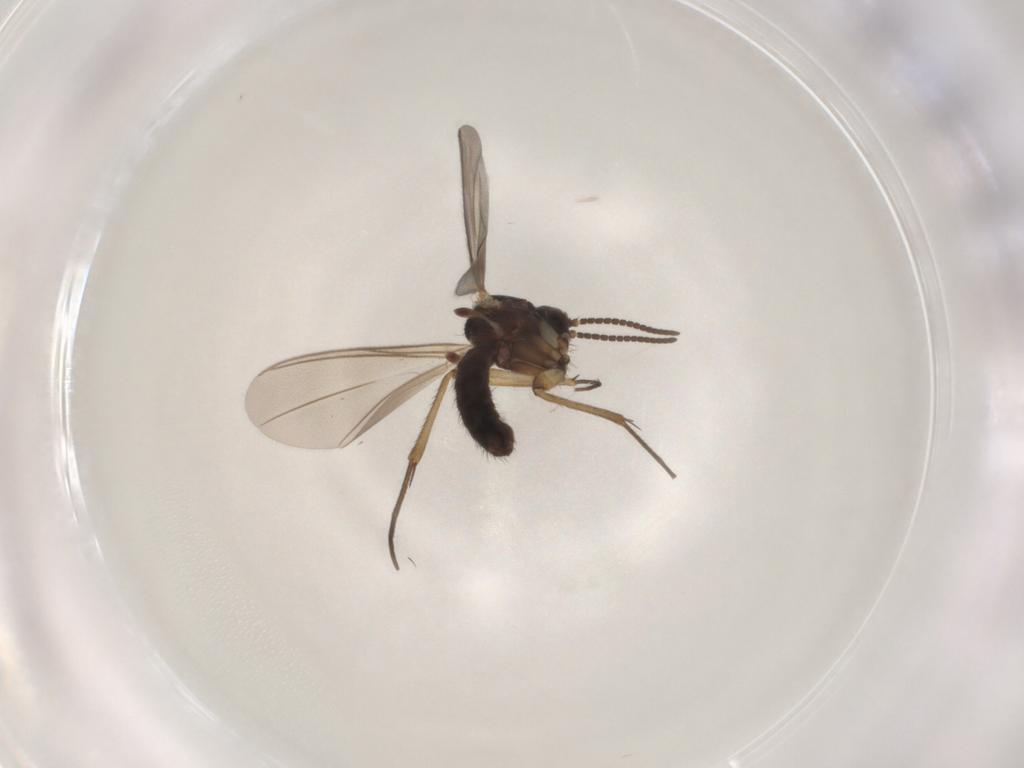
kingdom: Animalia
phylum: Arthropoda
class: Insecta
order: Diptera
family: Mycetophilidae
